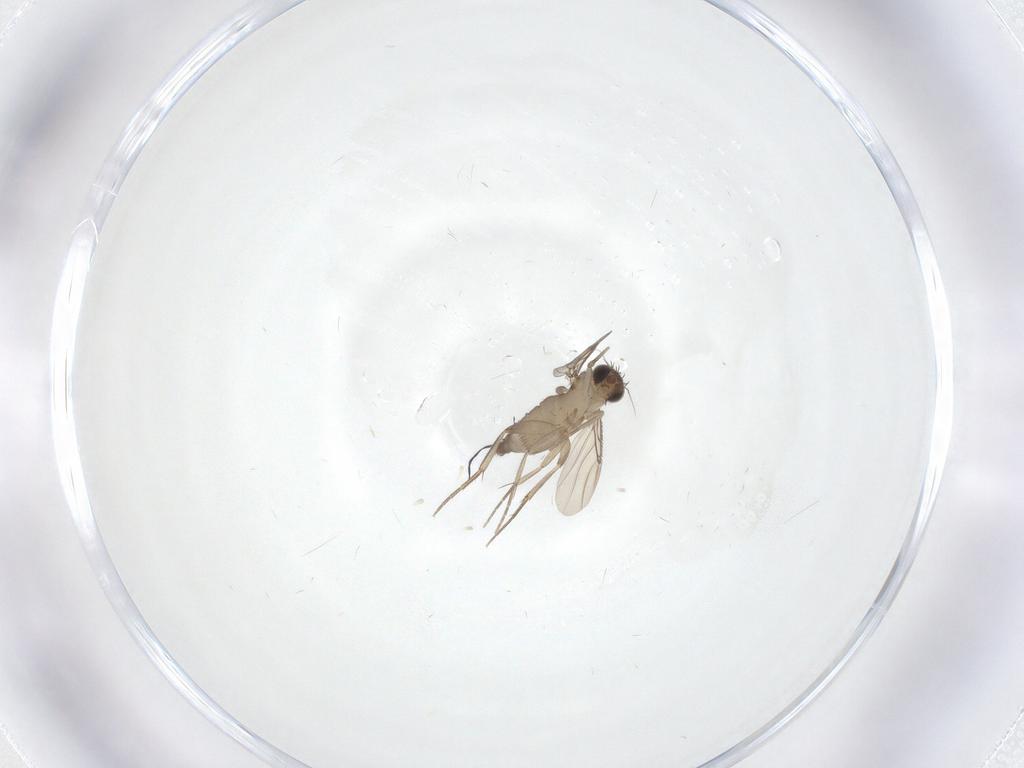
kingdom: Animalia
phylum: Arthropoda
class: Insecta
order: Diptera
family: Phoridae
